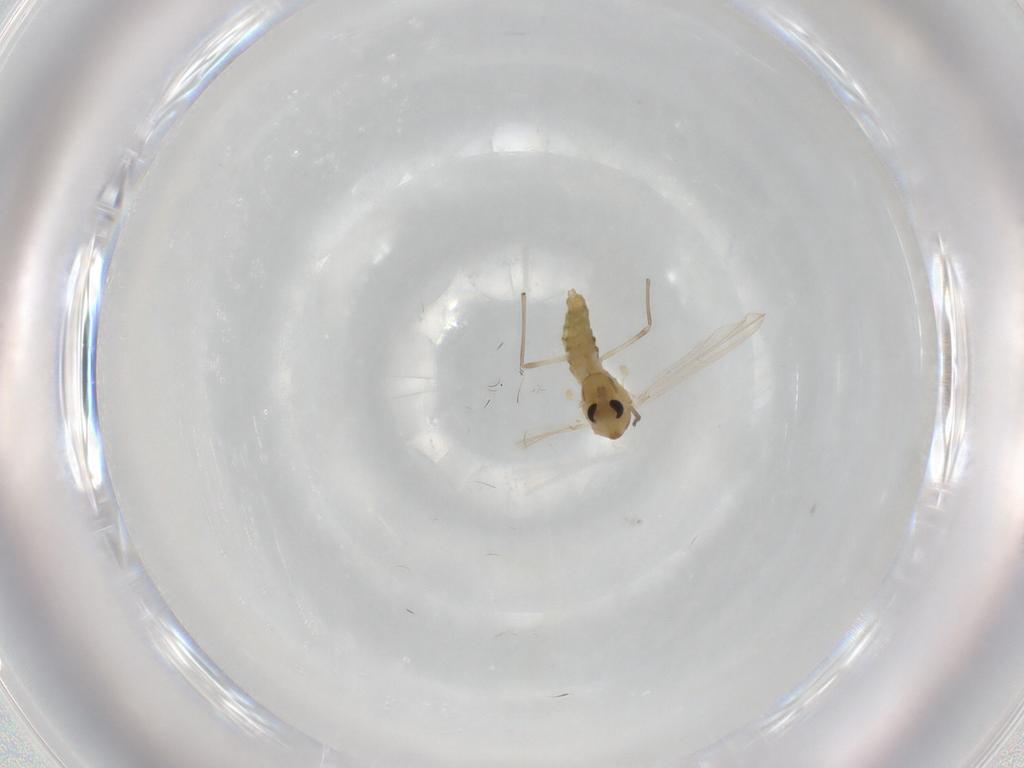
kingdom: Animalia
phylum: Arthropoda
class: Insecta
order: Diptera
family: Chironomidae
